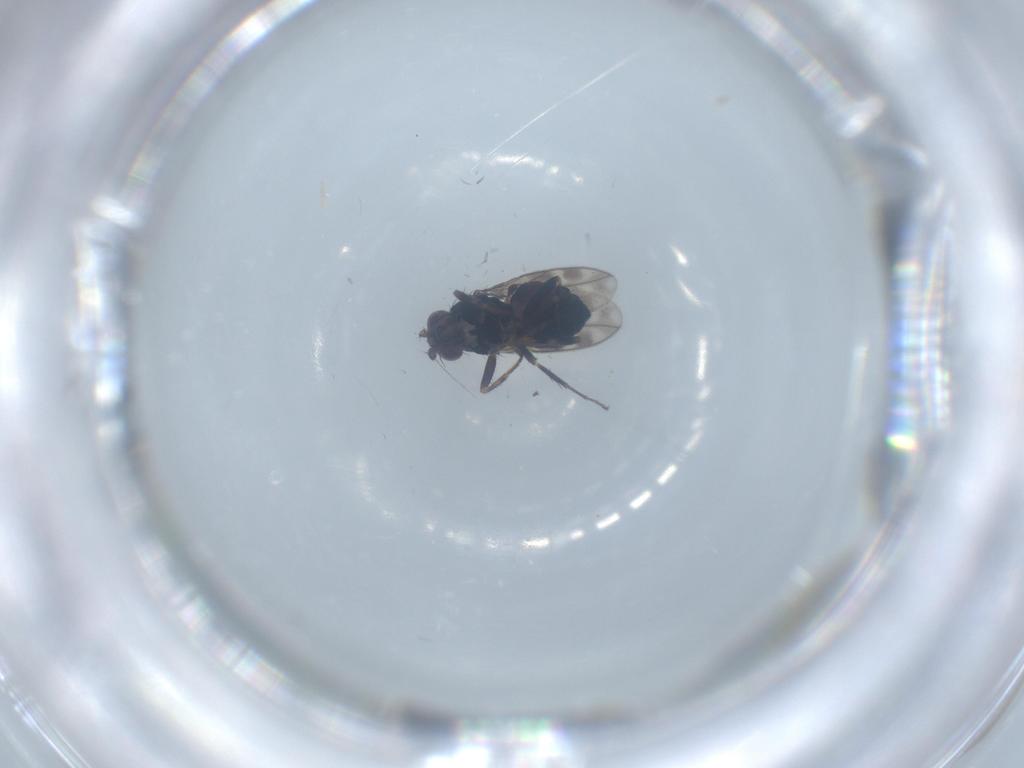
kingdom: Animalia
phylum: Arthropoda
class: Insecta
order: Diptera
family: Sphaeroceridae
